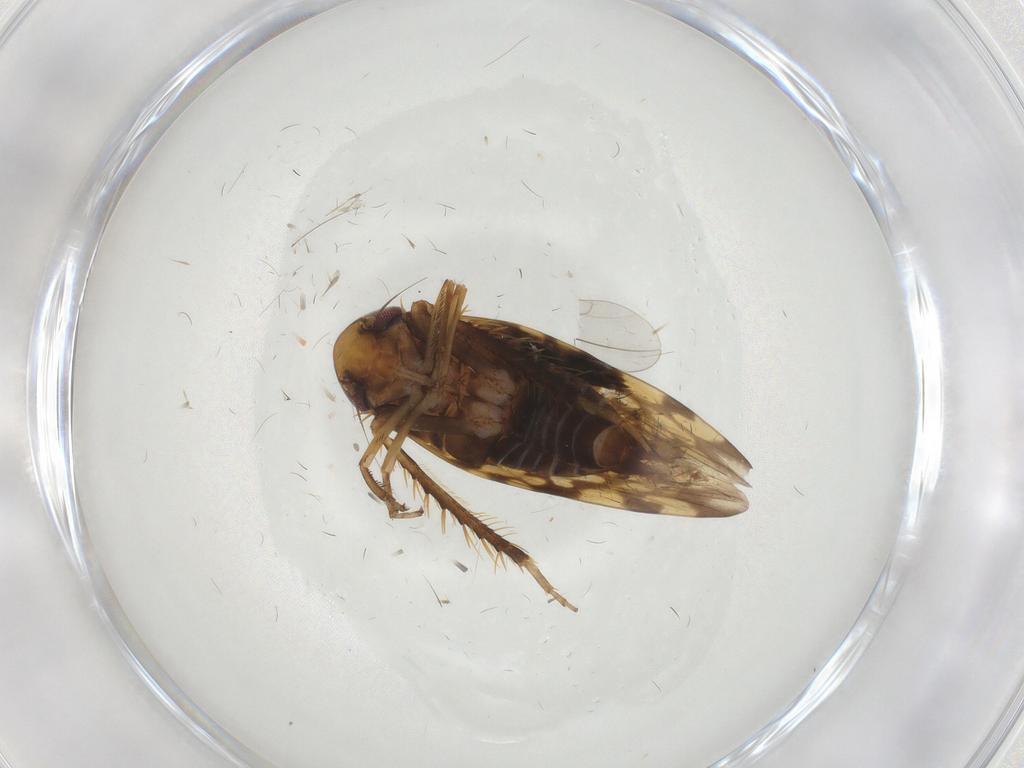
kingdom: Animalia
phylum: Arthropoda
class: Insecta
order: Hemiptera
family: Cicadellidae
